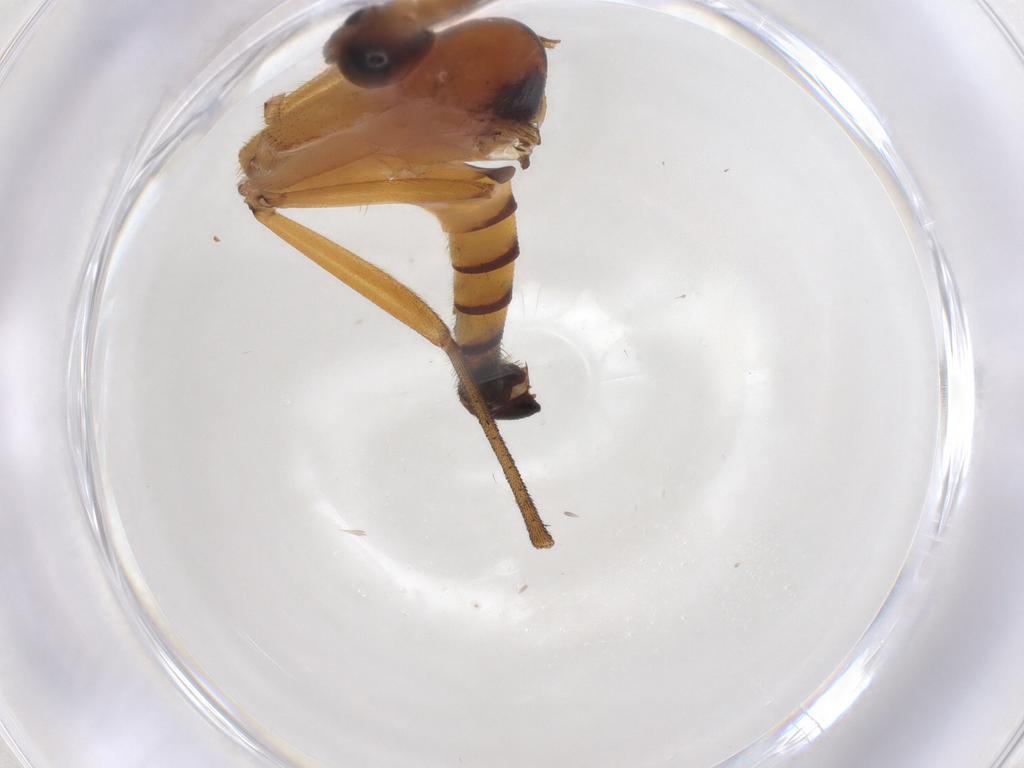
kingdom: Animalia
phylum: Arthropoda
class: Insecta
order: Diptera
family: Mycetophilidae
